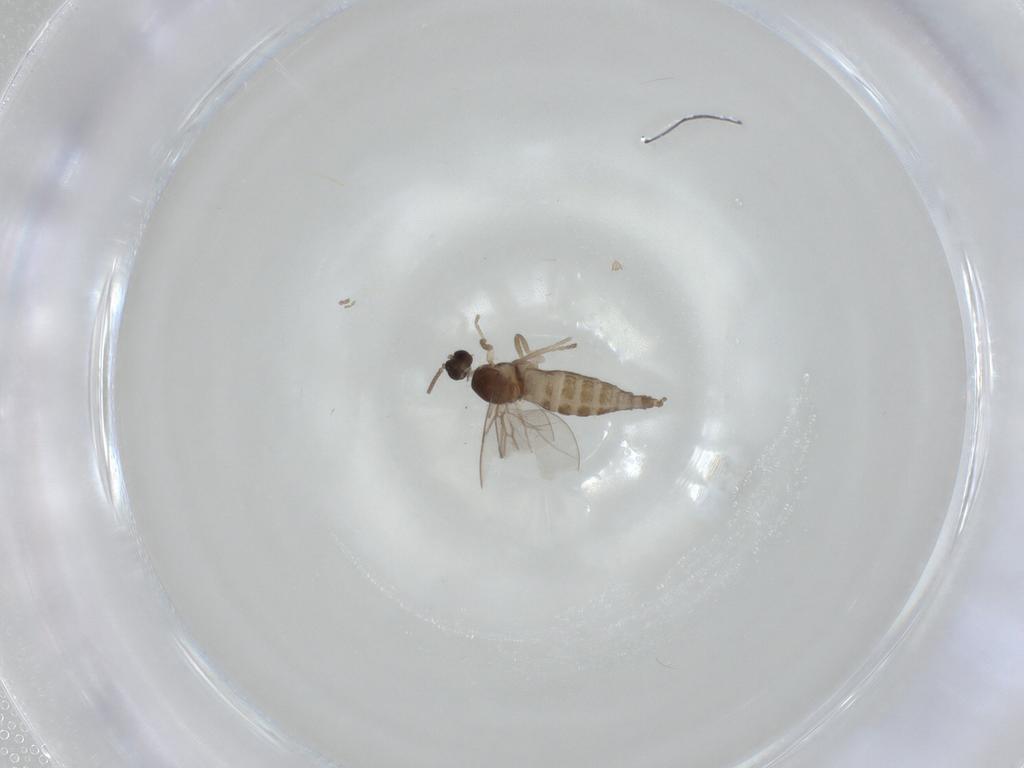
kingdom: Animalia
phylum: Arthropoda
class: Insecta
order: Diptera
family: Cecidomyiidae
